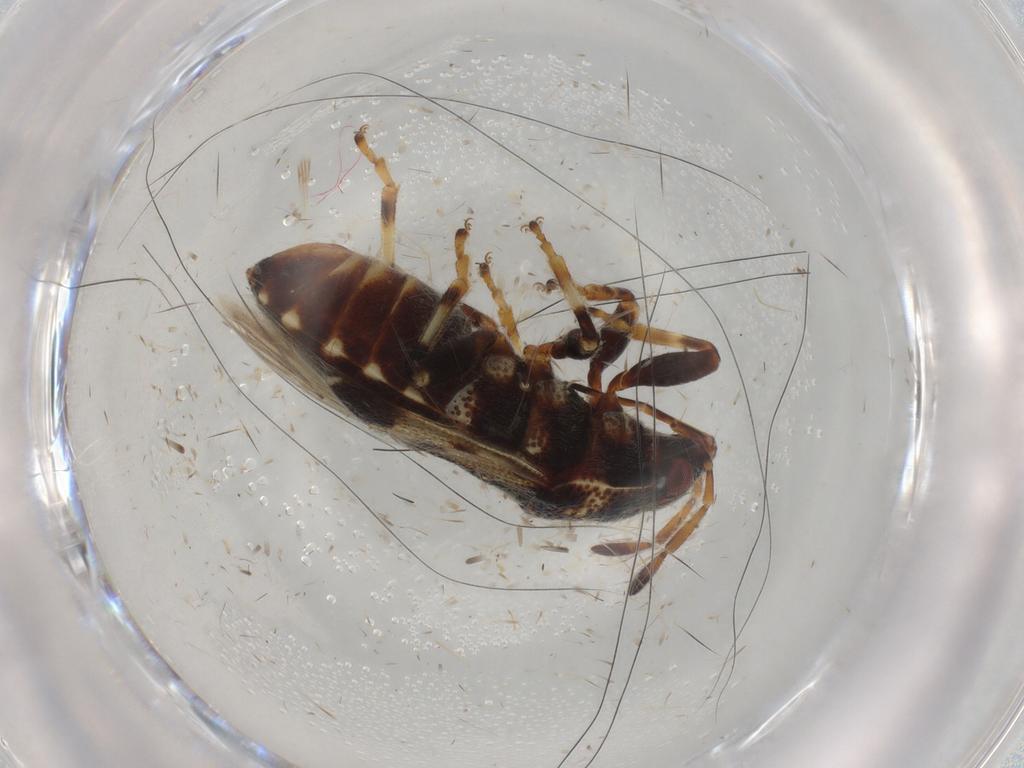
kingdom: Animalia
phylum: Arthropoda
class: Insecta
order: Hemiptera
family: Aphididae
